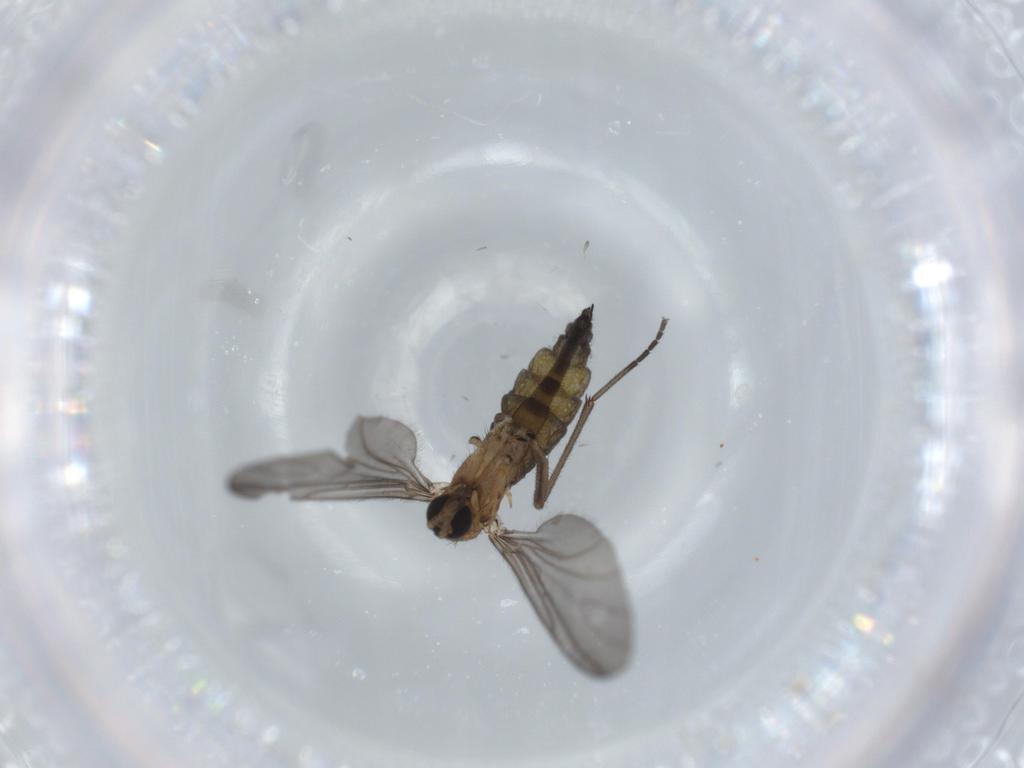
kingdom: Animalia
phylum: Arthropoda
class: Insecta
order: Diptera
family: Sciaridae
